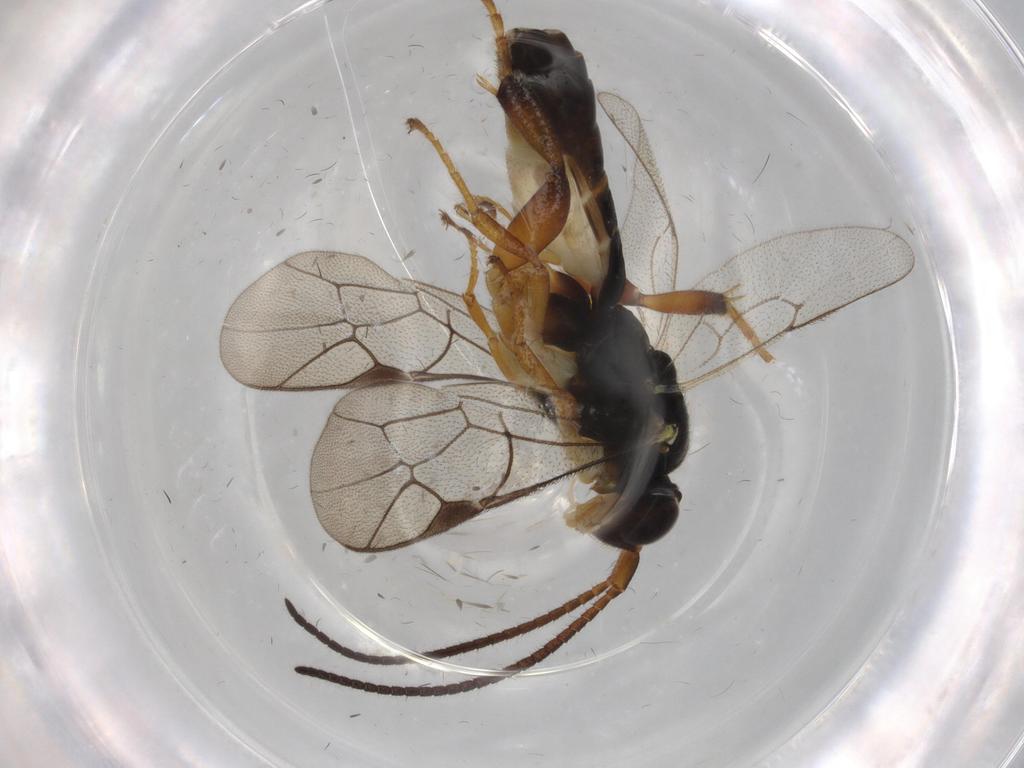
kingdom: Animalia
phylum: Arthropoda
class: Insecta
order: Diptera
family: Cecidomyiidae
